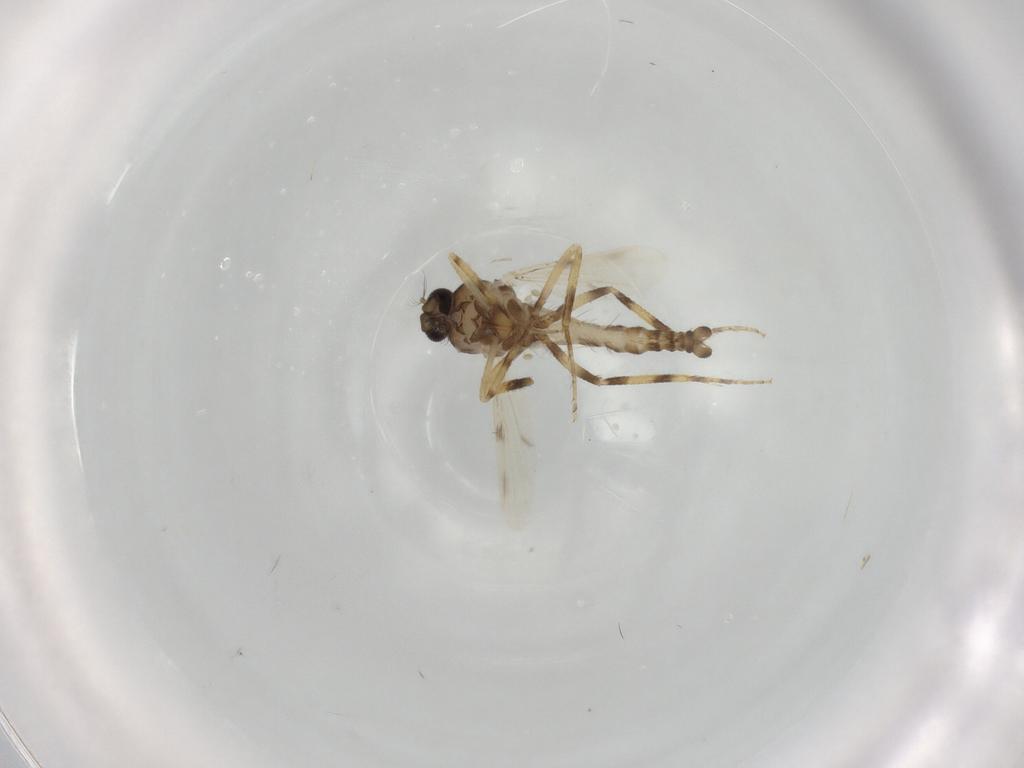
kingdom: Animalia
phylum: Arthropoda
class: Insecta
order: Diptera
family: Ceratopogonidae
